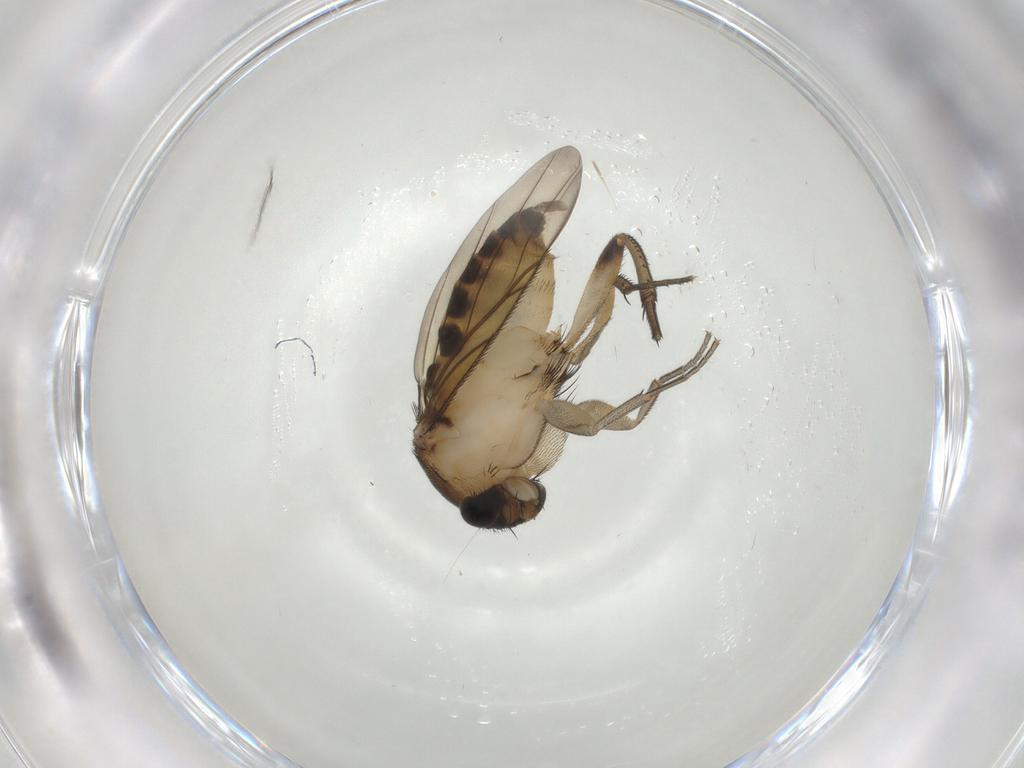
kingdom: Animalia
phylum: Arthropoda
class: Insecta
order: Diptera
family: Phoridae
